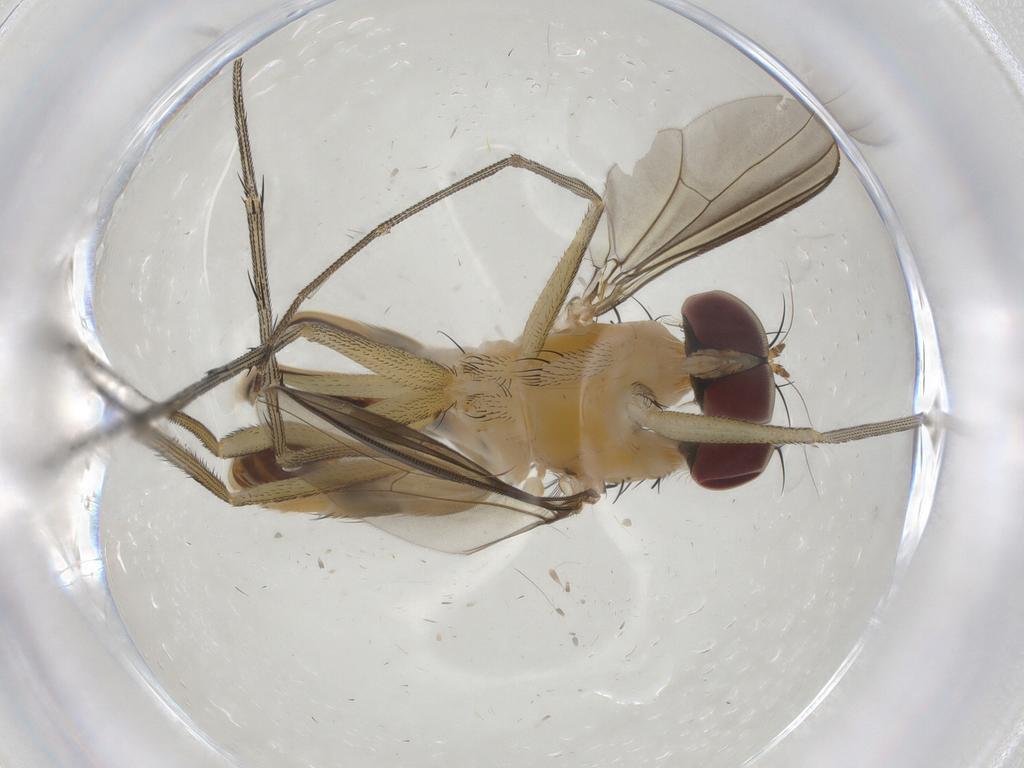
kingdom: Animalia
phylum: Arthropoda
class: Insecta
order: Diptera
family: Dolichopodidae
